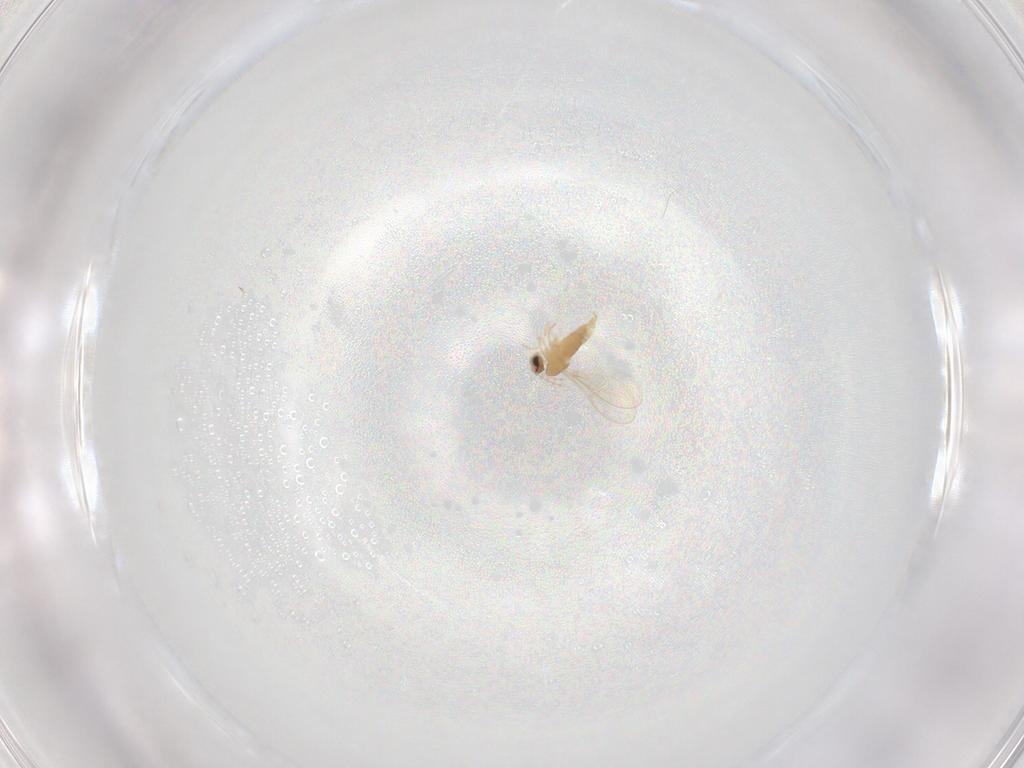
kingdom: Animalia
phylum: Arthropoda
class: Insecta
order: Diptera
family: Cecidomyiidae
